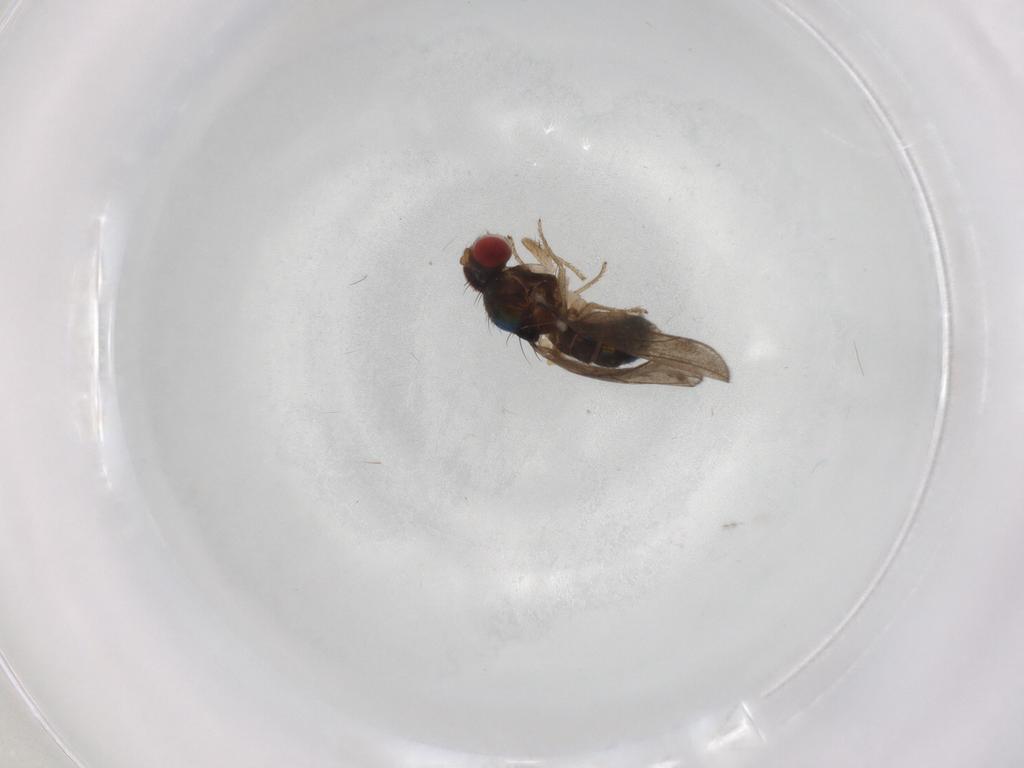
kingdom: Animalia
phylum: Arthropoda
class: Insecta
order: Diptera
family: Ceratopogonidae
